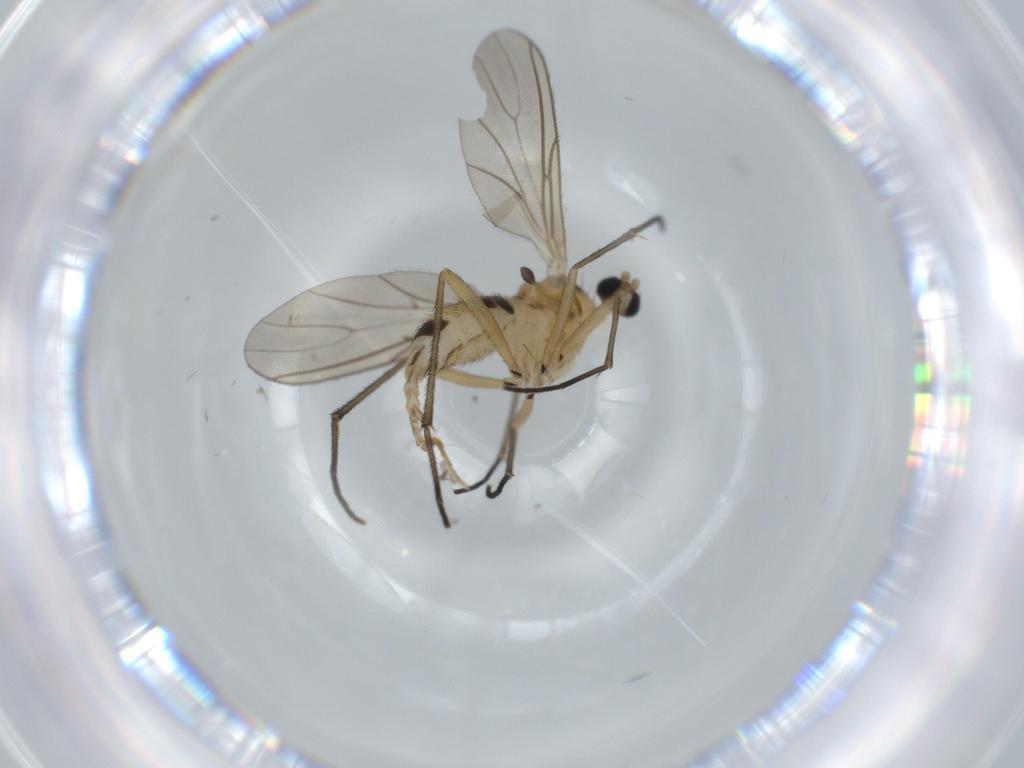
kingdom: Animalia
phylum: Arthropoda
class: Insecta
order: Diptera
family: Sciaridae
